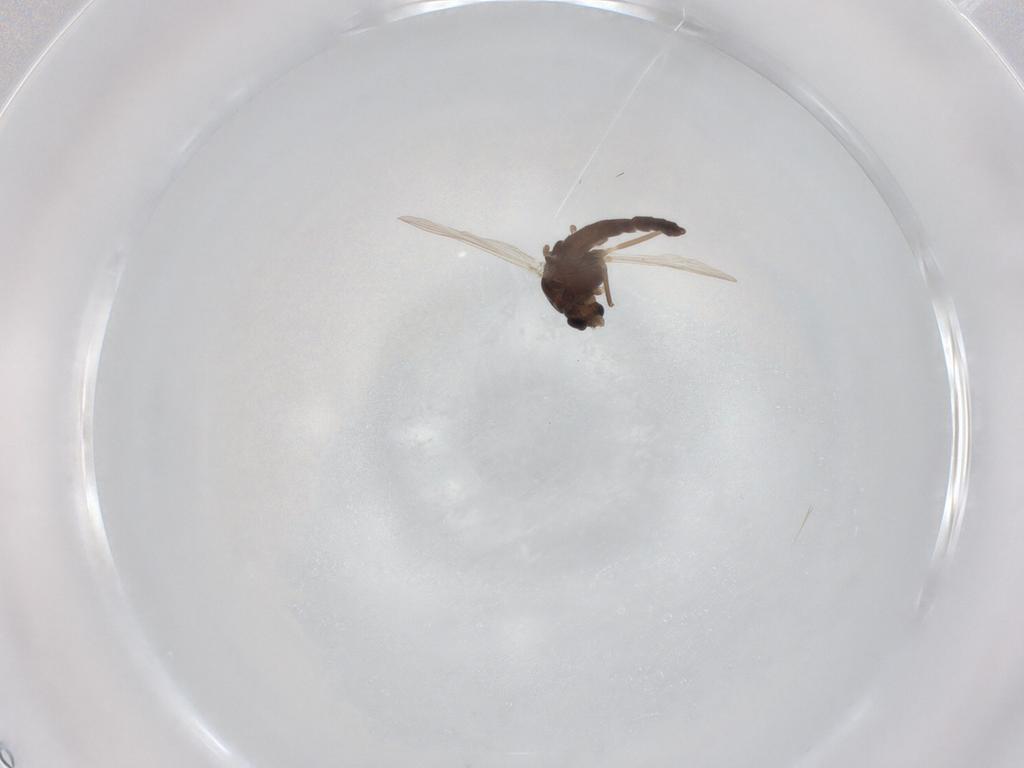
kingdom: Animalia
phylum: Arthropoda
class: Insecta
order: Diptera
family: Chironomidae
